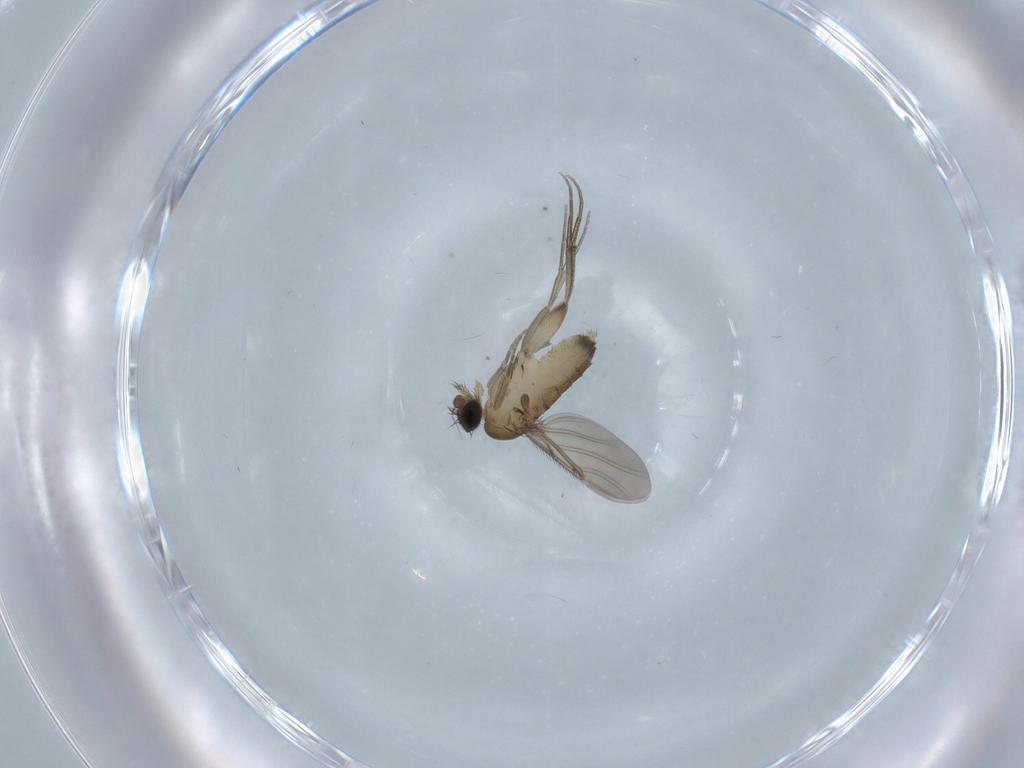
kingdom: Animalia
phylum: Arthropoda
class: Insecta
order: Diptera
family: Phoridae
